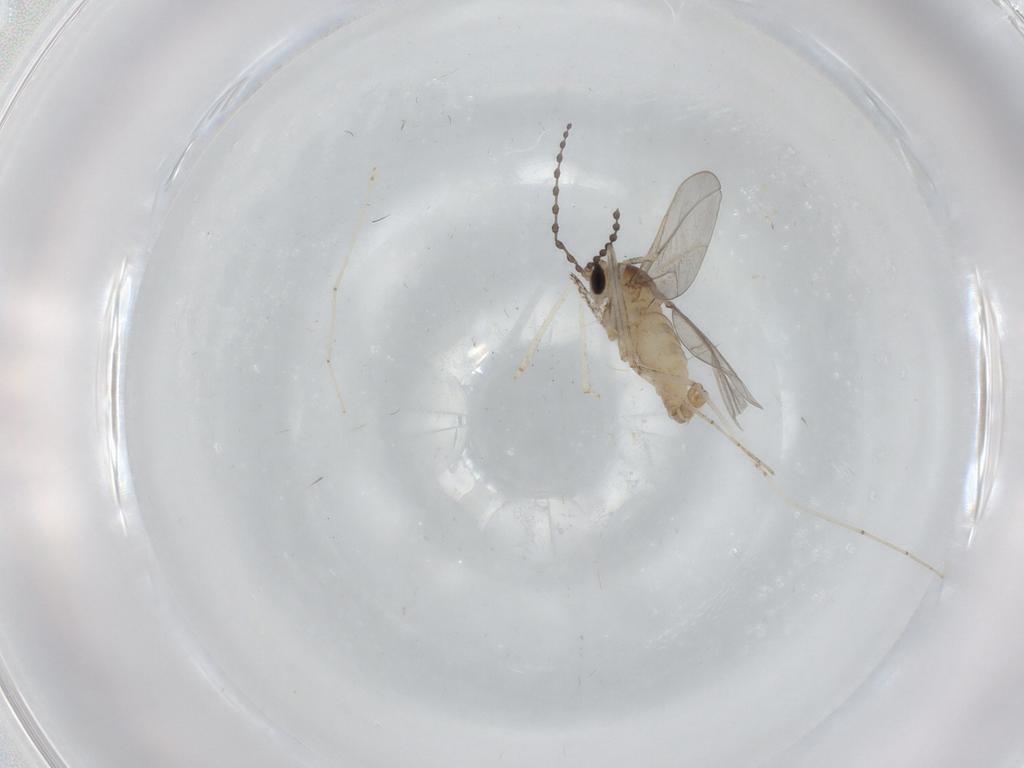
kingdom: Animalia
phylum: Arthropoda
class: Insecta
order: Diptera
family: Cecidomyiidae
